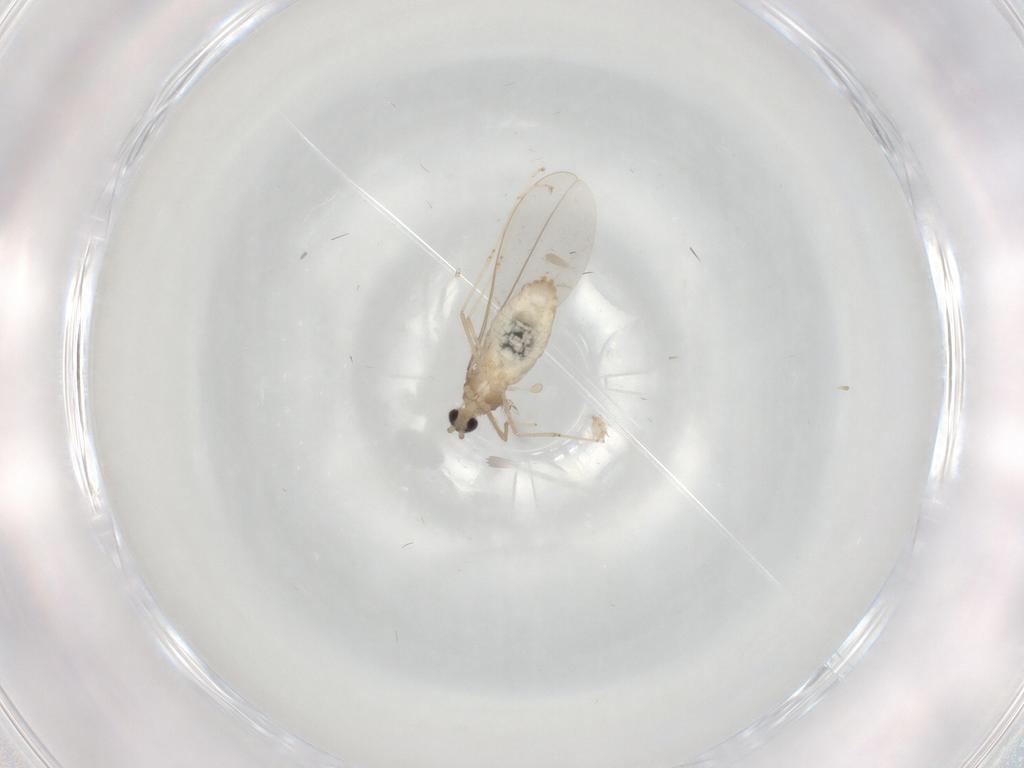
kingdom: Animalia
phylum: Arthropoda
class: Insecta
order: Diptera
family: Cecidomyiidae
